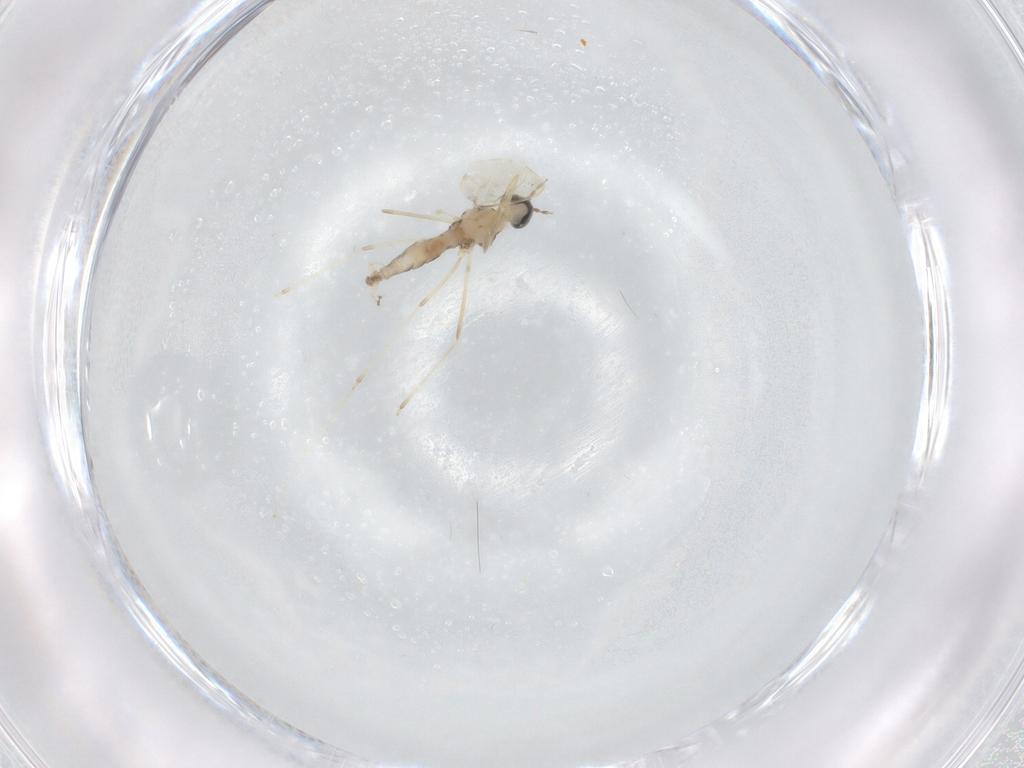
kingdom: Animalia
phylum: Arthropoda
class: Insecta
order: Diptera
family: Cecidomyiidae
